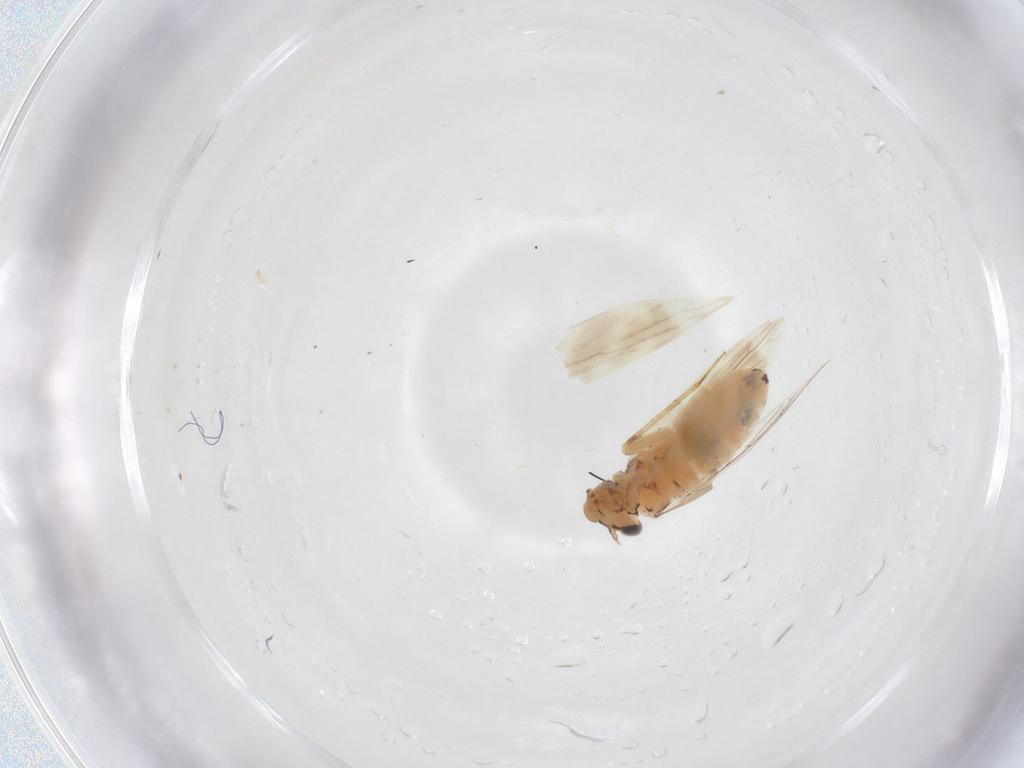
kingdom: Animalia
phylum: Arthropoda
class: Insecta
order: Psocodea
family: Lepidopsocidae
